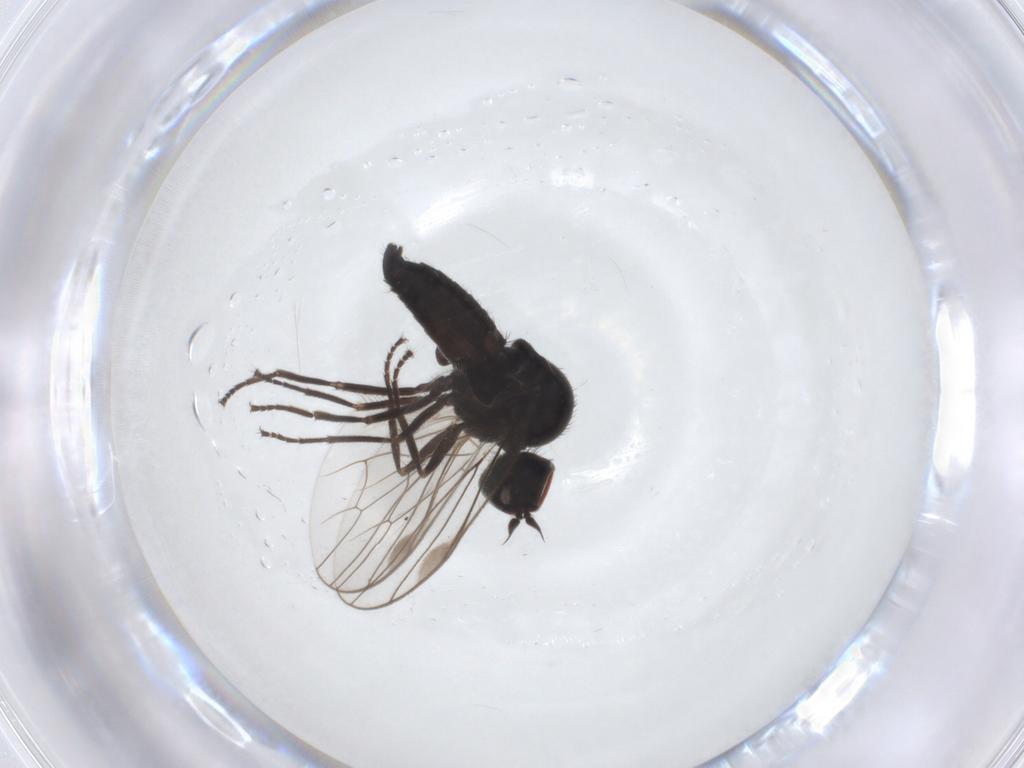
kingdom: Animalia
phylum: Arthropoda
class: Insecta
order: Diptera
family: Hybotidae
